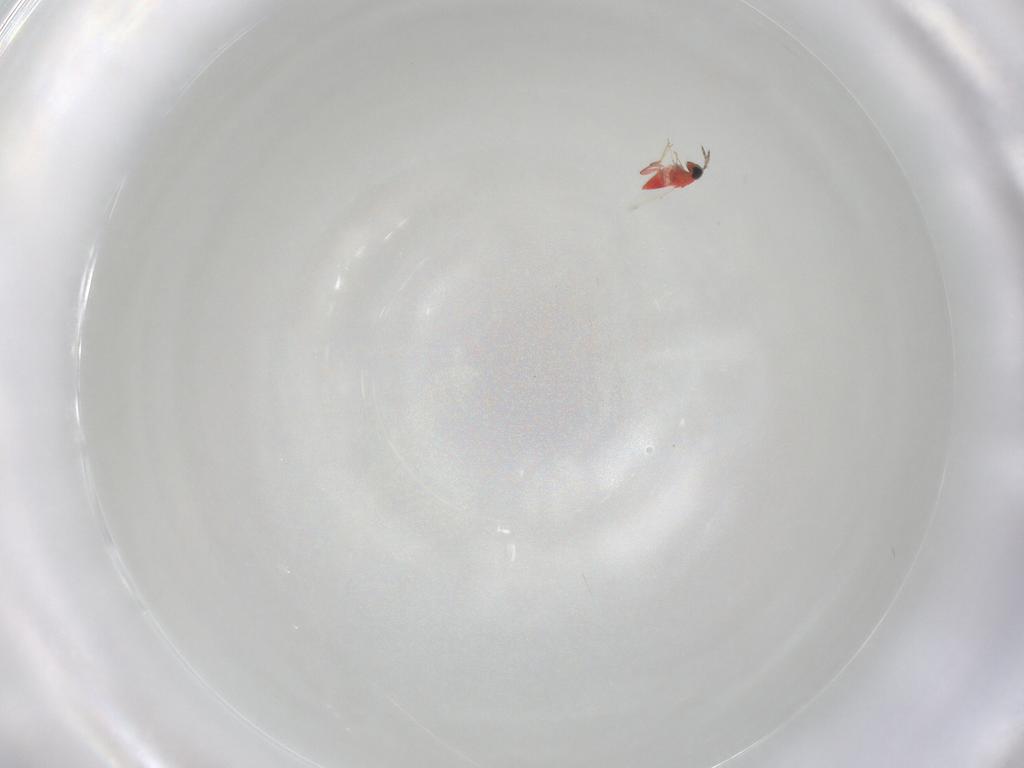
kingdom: Animalia
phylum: Arthropoda
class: Insecta
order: Hymenoptera
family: Trichogrammatidae
